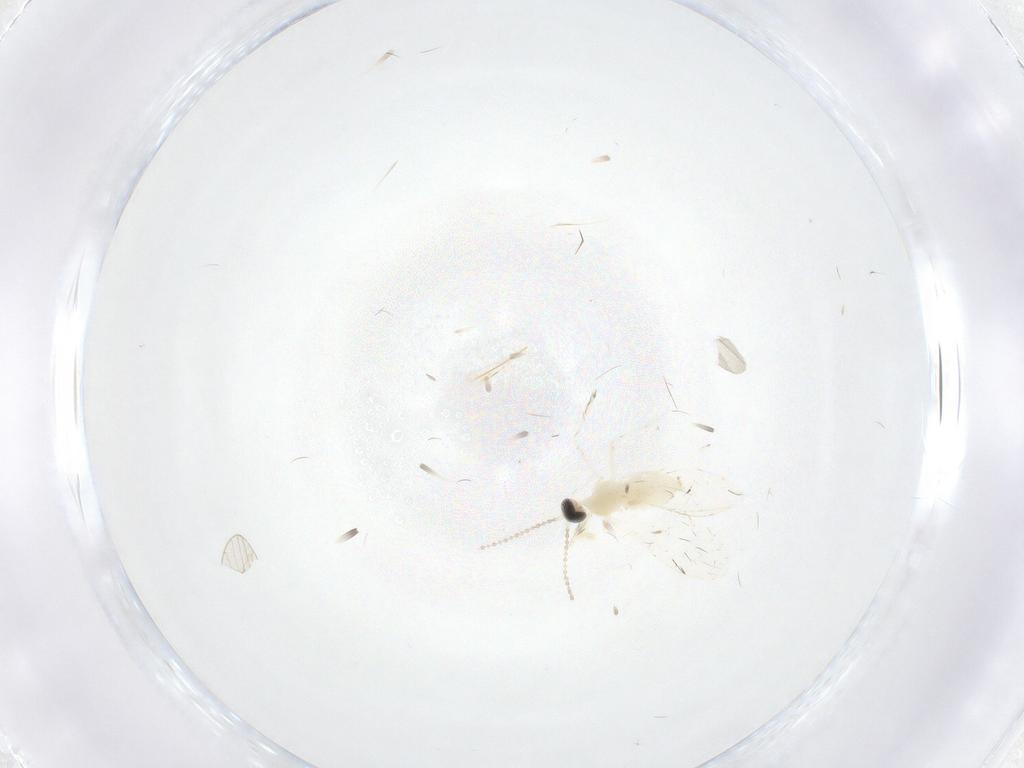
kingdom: Animalia
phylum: Arthropoda
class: Insecta
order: Diptera
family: Cecidomyiidae
